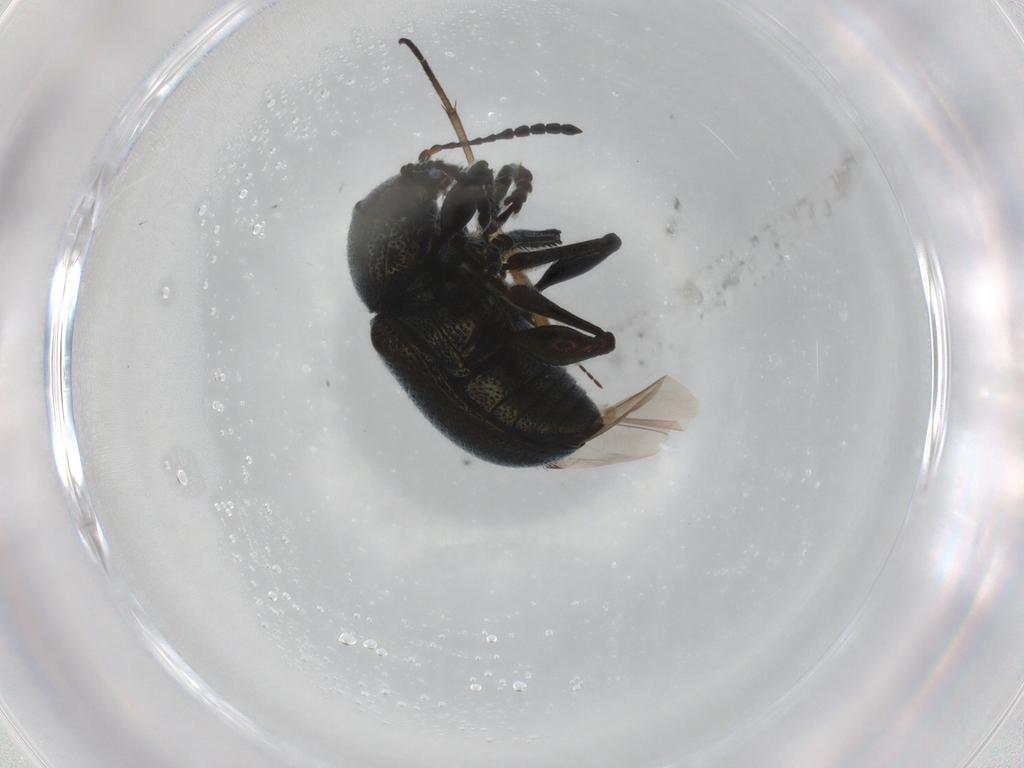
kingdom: Animalia
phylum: Arthropoda
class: Insecta
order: Coleoptera
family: Chrysomelidae
